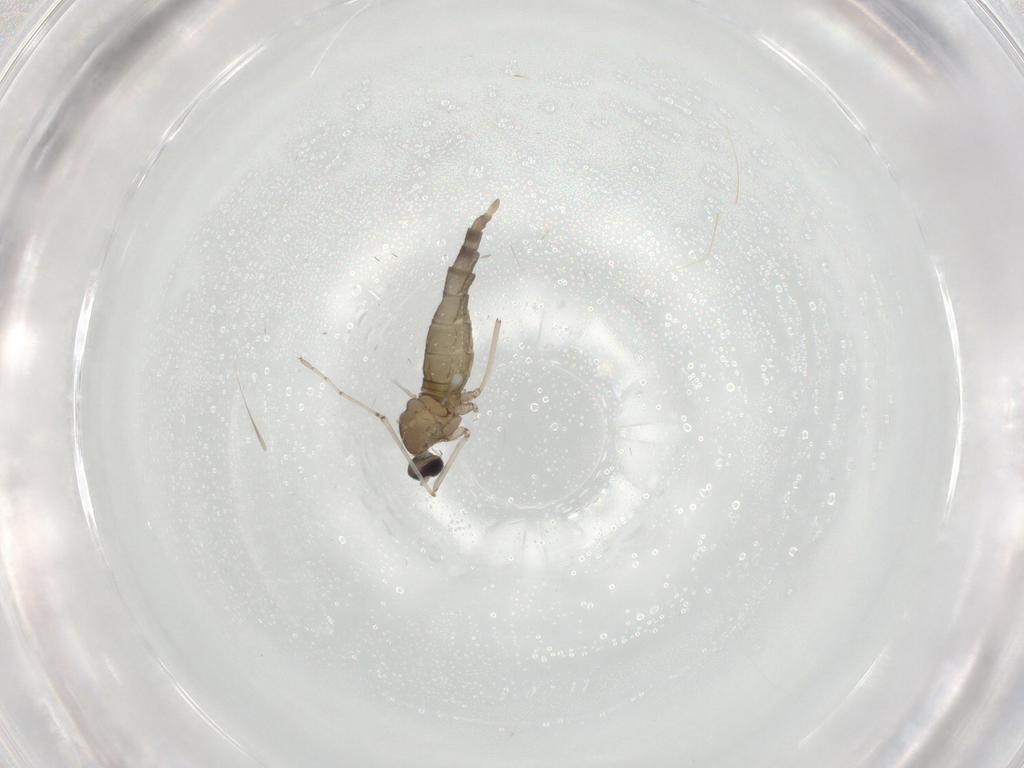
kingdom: Animalia
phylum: Arthropoda
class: Insecta
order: Diptera
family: Cecidomyiidae
